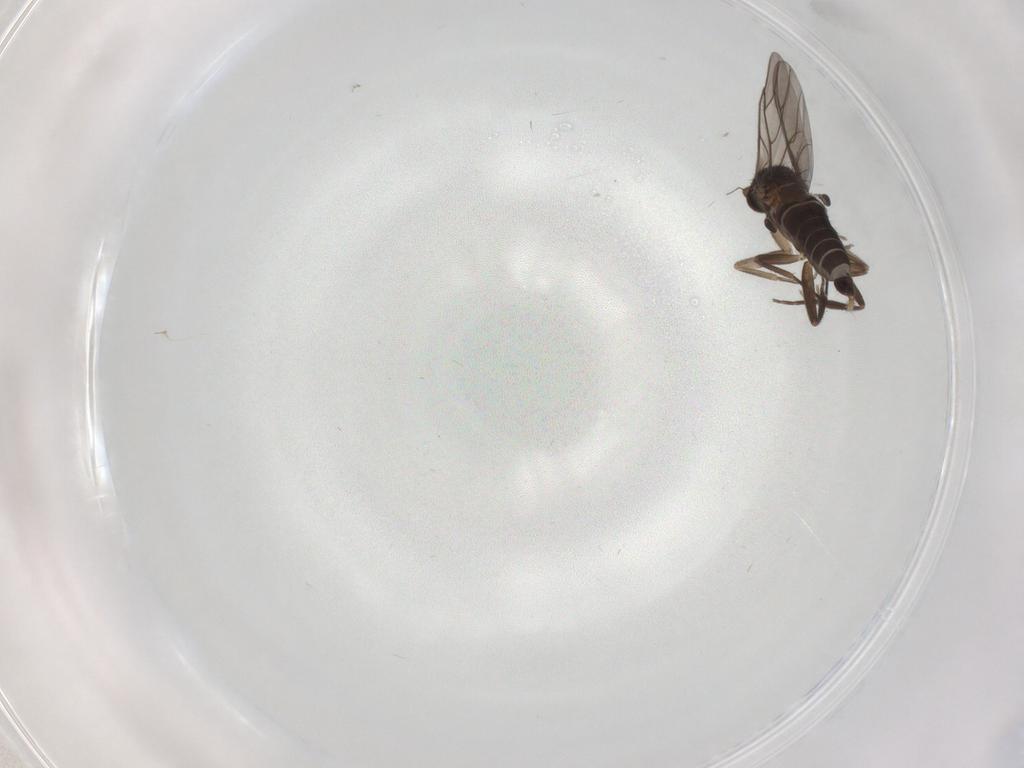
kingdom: Animalia
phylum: Arthropoda
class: Insecta
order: Diptera
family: Ceratopogonidae
